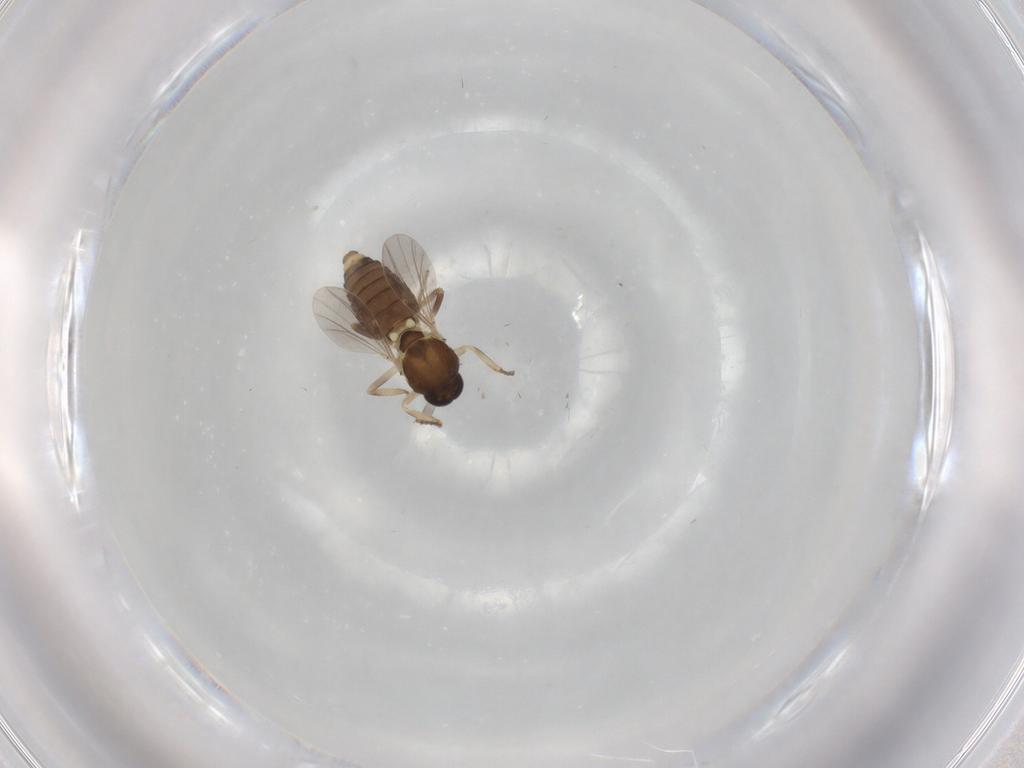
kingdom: Animalia
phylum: Arthropoda
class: Insecta
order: Diptera
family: Ceratopogonidae
